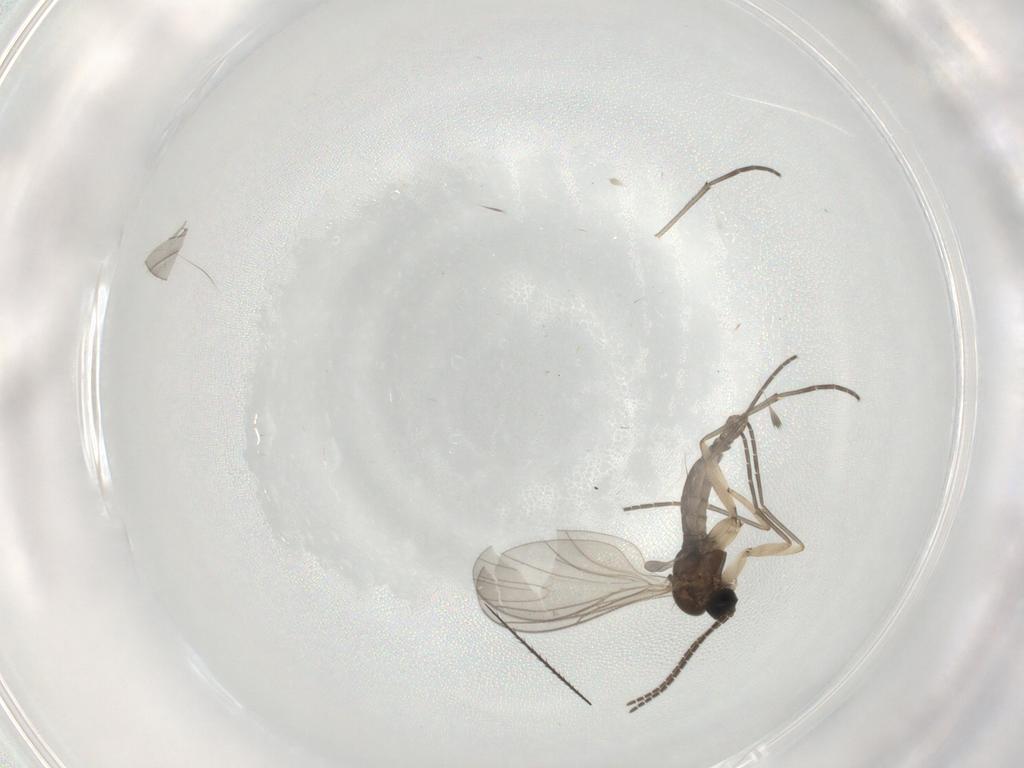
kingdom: Animalia
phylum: Arthropoda
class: Insecta
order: Diptera
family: Sciaridae
